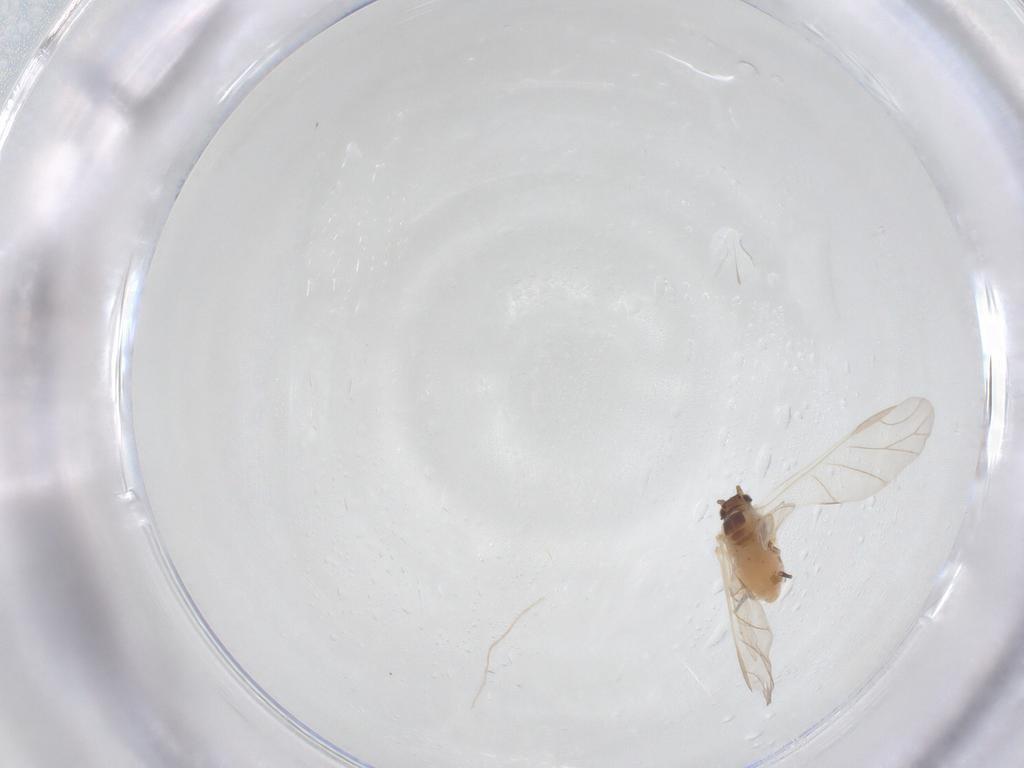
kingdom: Animalia
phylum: Arthropoda
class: Insecta
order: Hemiptera
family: Aphididae
